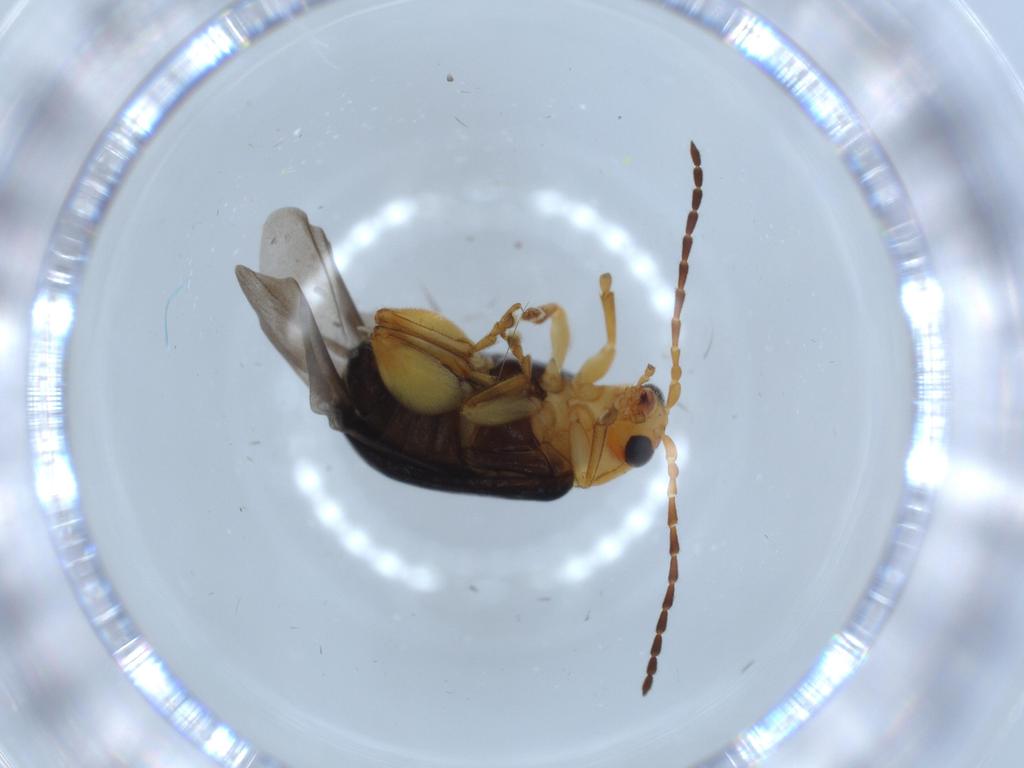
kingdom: Animalia
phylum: Arthropoda
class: Insecta
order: Coleoptera
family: Chrysomelidae
